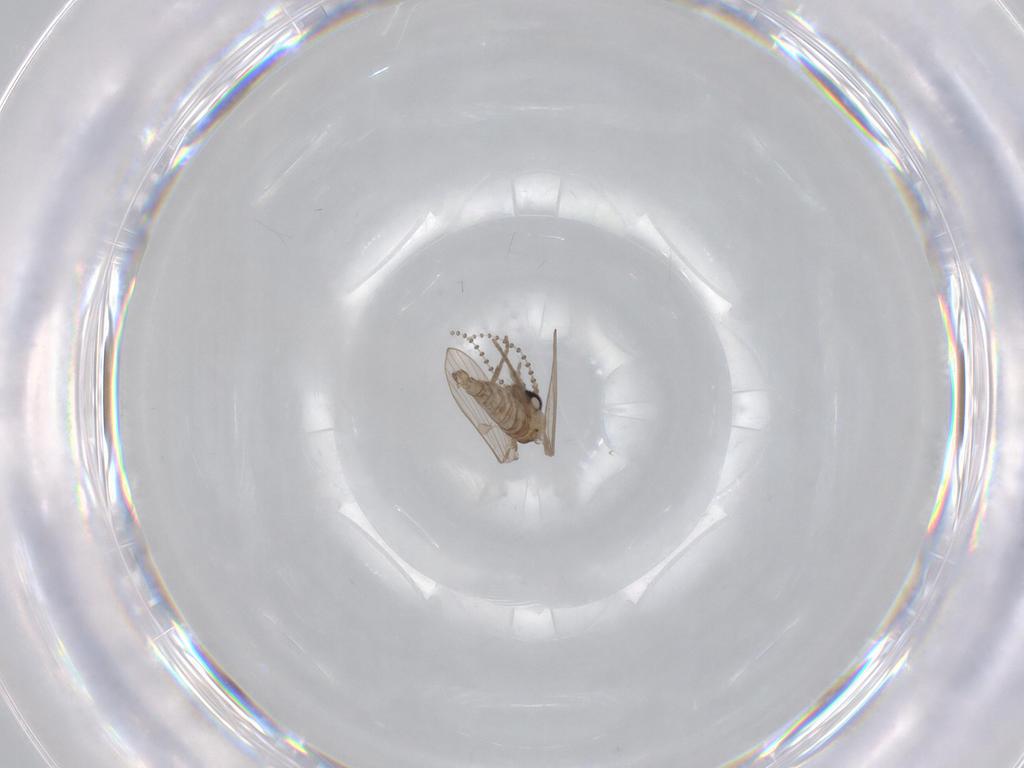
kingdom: Animalia
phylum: Arthropoda
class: Insecta
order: Diptera
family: Psychodidae
